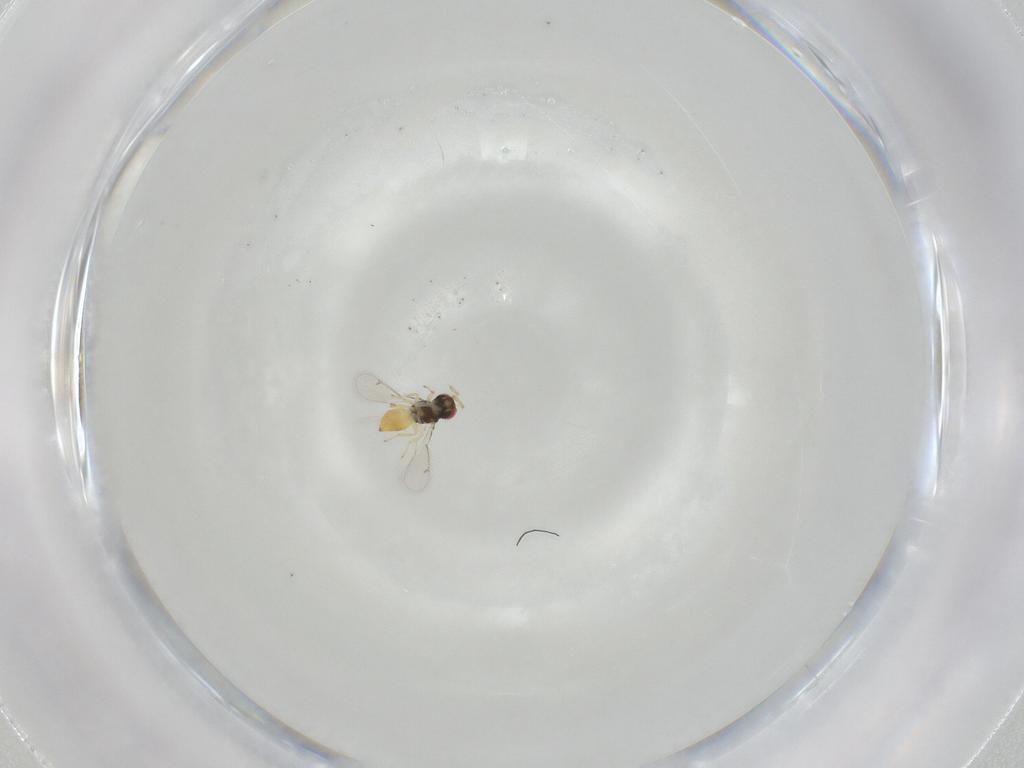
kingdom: Animalia
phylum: Arthropoda
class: Insecta
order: Hymenoptera
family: Eulophidae
